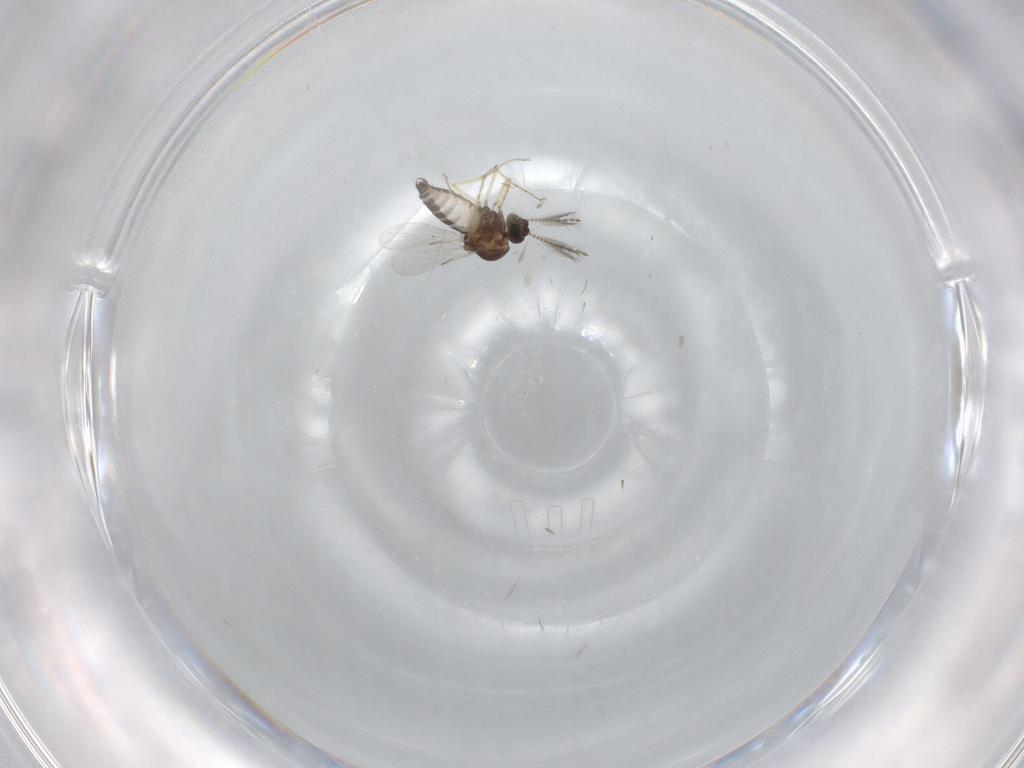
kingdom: Animalia
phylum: Arthropoda
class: Insecta
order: Diptera
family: Ceratopogonidae
